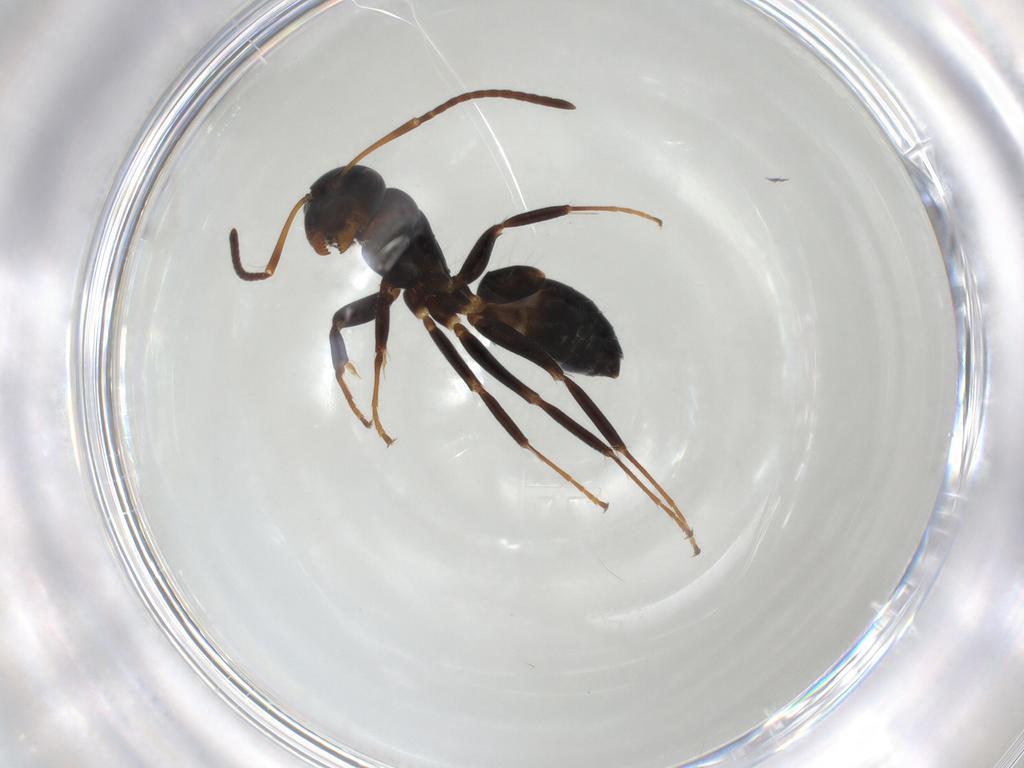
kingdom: Animalia
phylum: Arthropoda
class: Insecta
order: Hymenoptera
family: Formicidae
